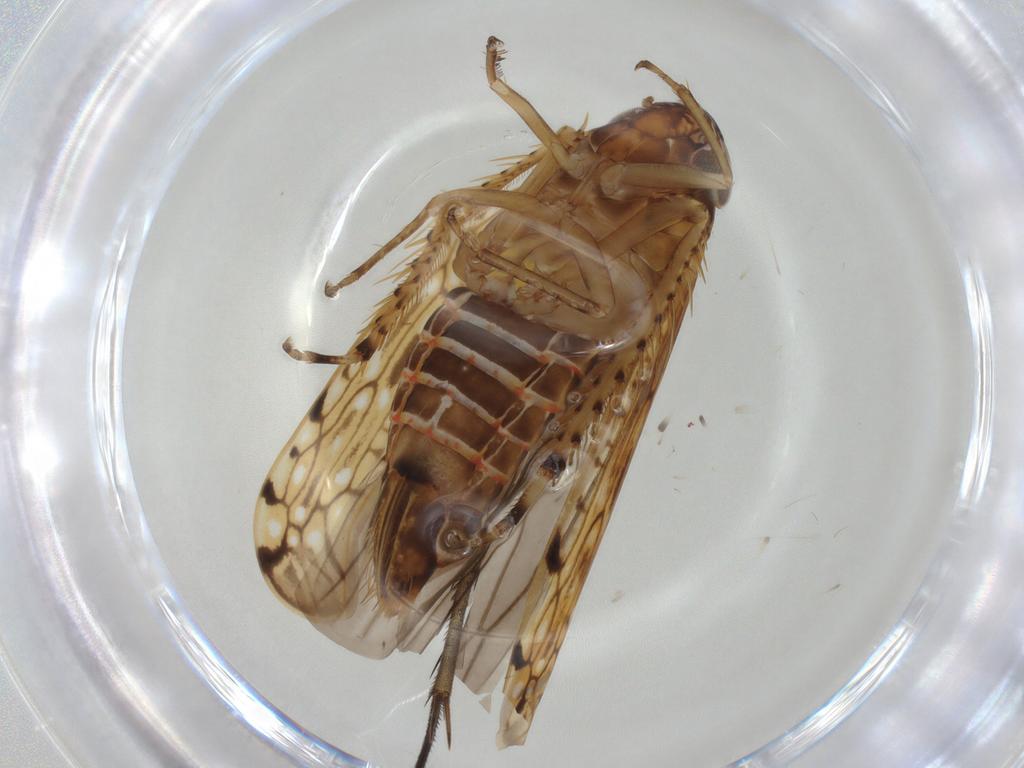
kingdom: Animalia
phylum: Arthropoda
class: Insecta
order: Hemiptera
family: Cicadellidae
